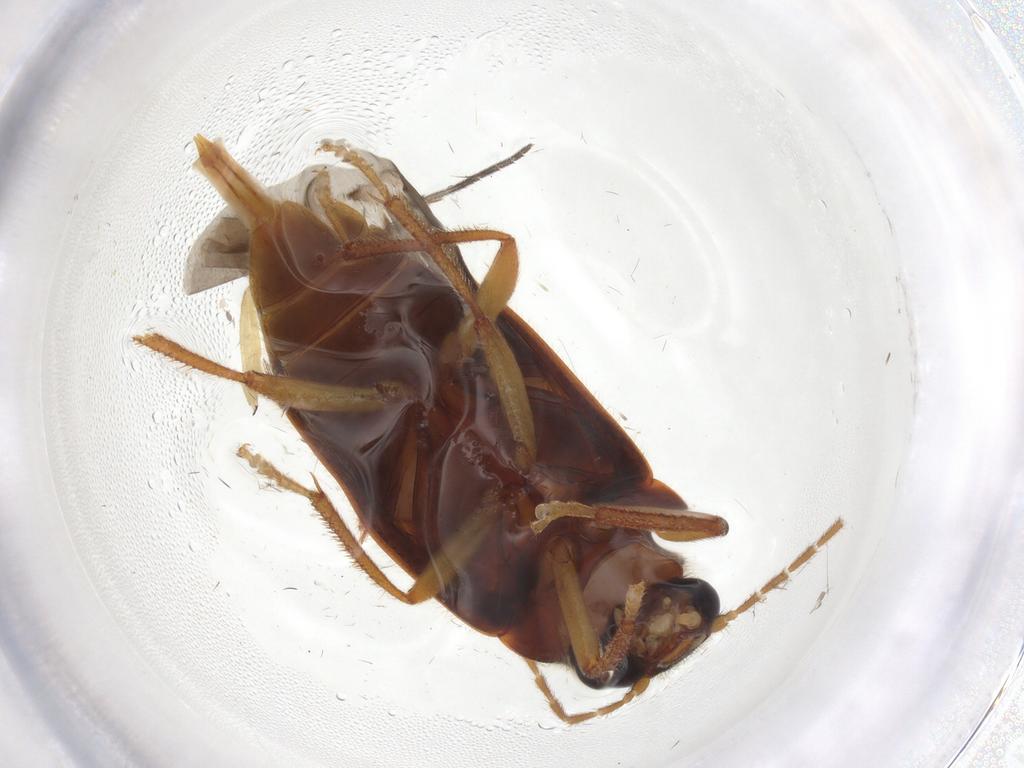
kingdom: Animalia
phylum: Arthropoda
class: Insecta
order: Coleoptera
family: Ptilodactylidae
